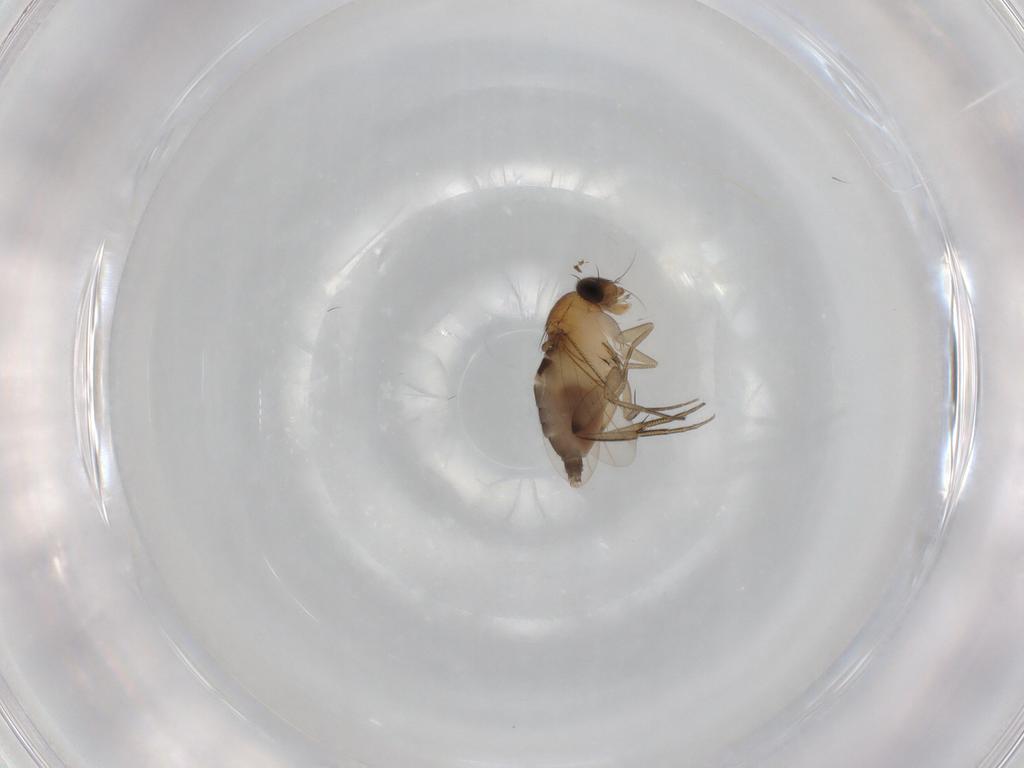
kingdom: Animalia
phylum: Arthropoda
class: Insecta
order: Diptera
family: Phoridae
